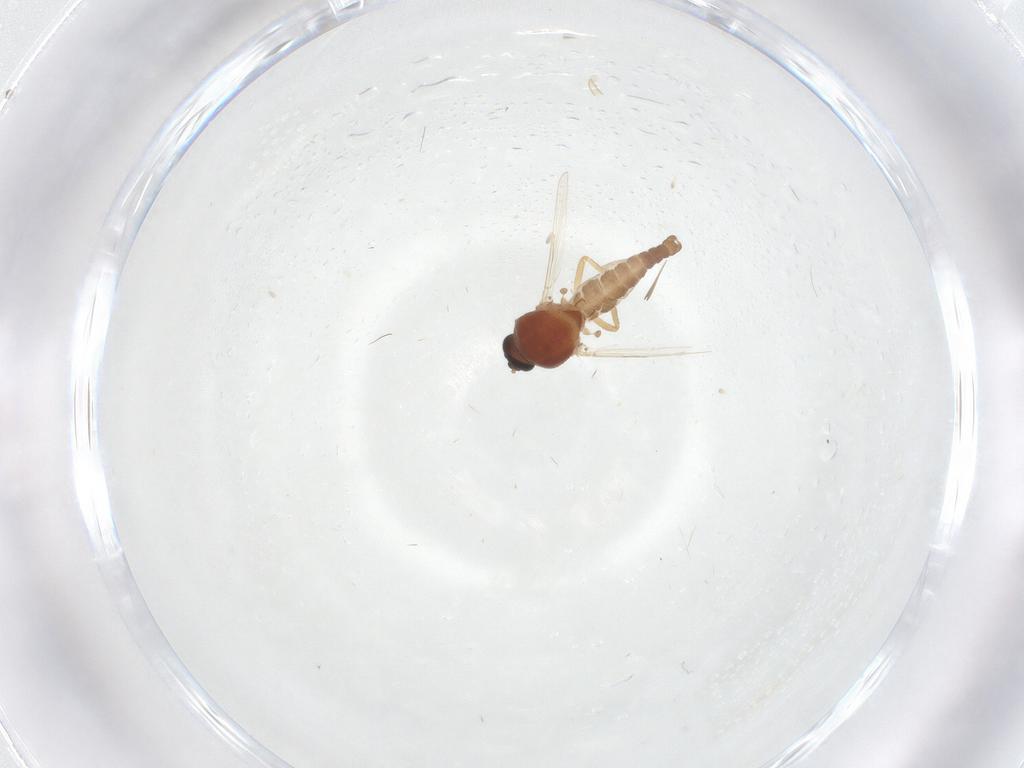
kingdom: Animalia
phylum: Arthropoda
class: Insecta
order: Diptera
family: Chironomidae
